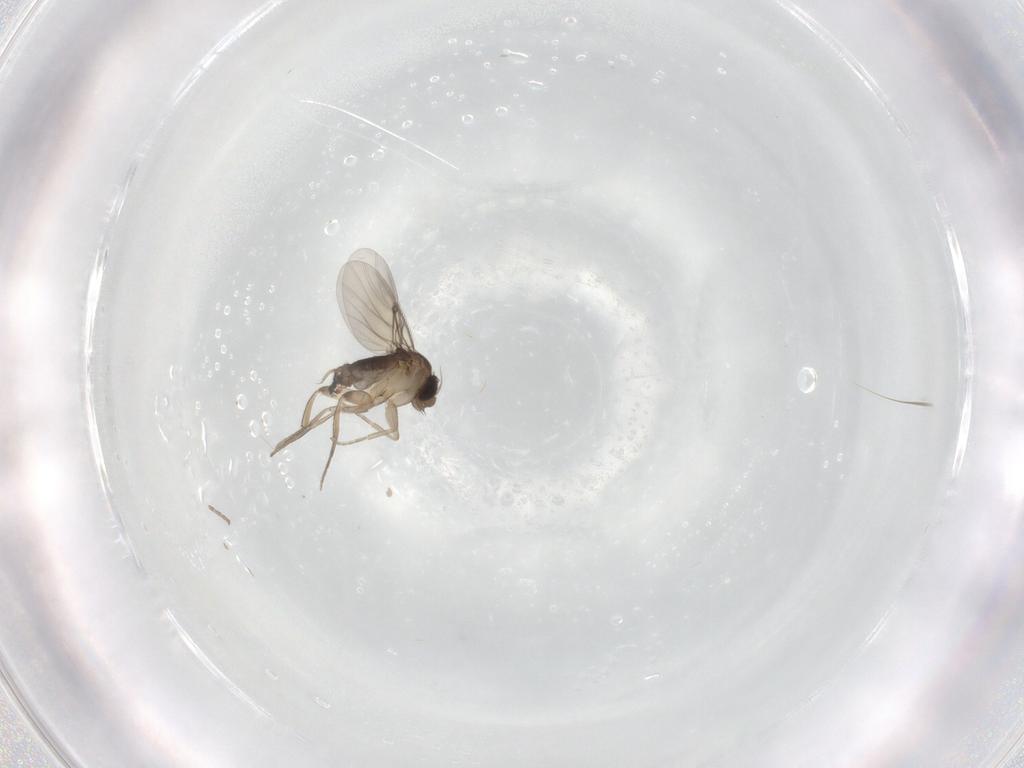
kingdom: Animalia
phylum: Arthropoda
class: Insecta
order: Diptera
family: Phoridae
